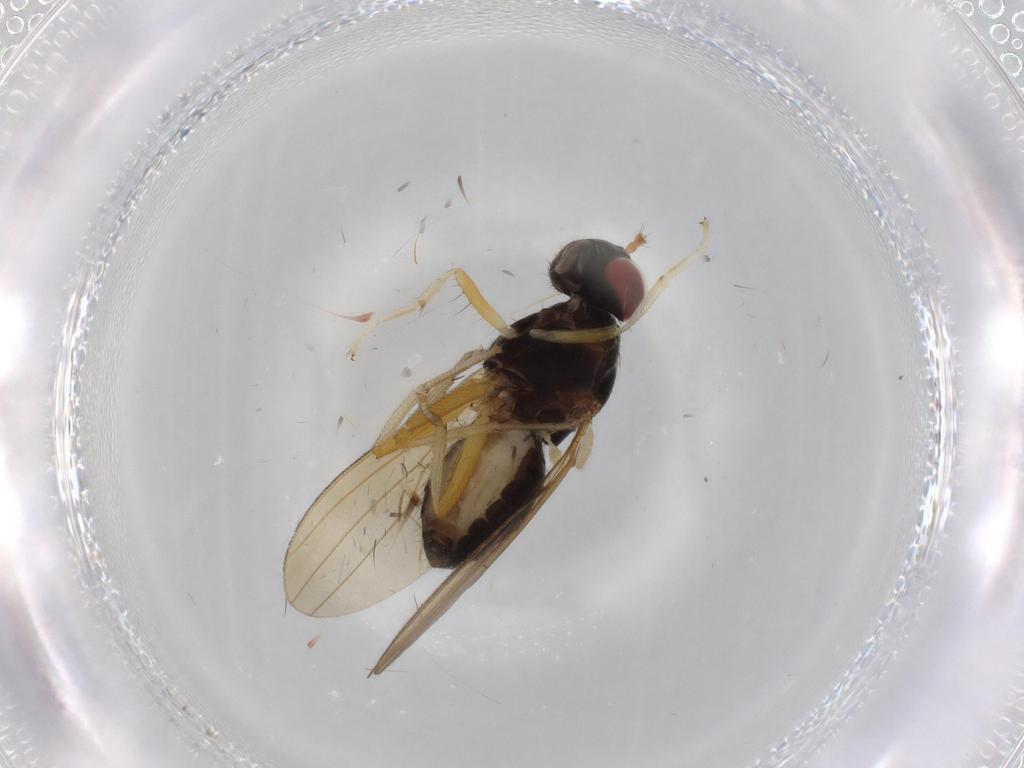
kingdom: Animalia
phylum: Arthropoda
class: Insecta
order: Diptera
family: Lauxaniidae
